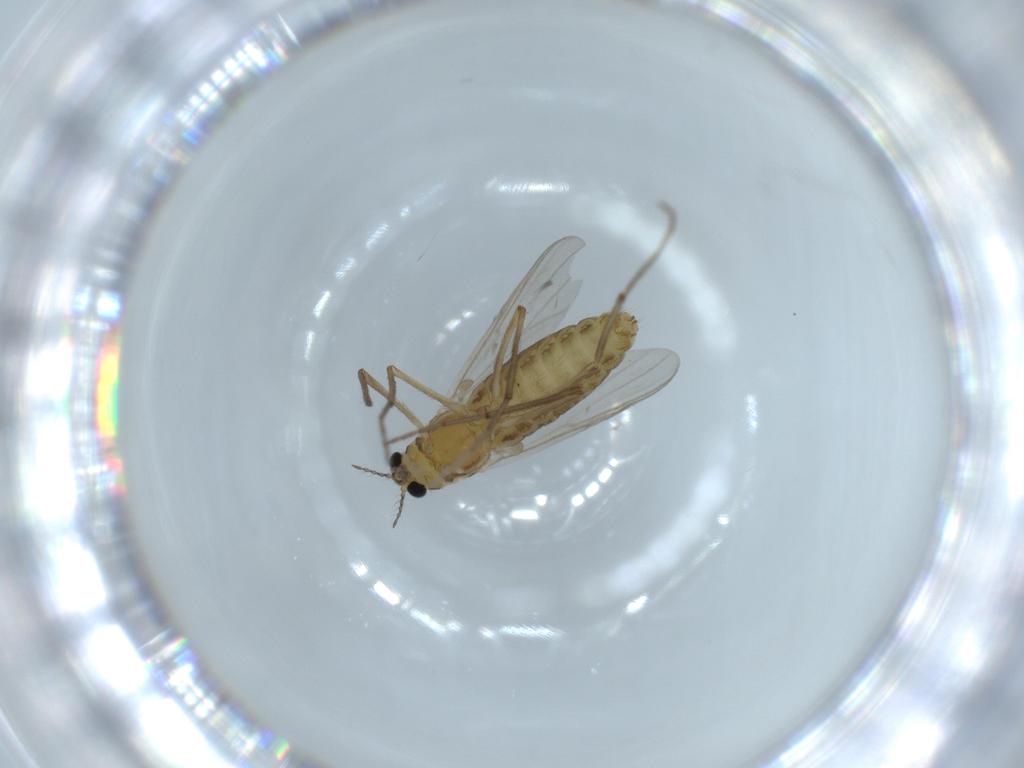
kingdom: Animalia
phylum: Arthropoda
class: Insecta
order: Diptera
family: Chironomidae
